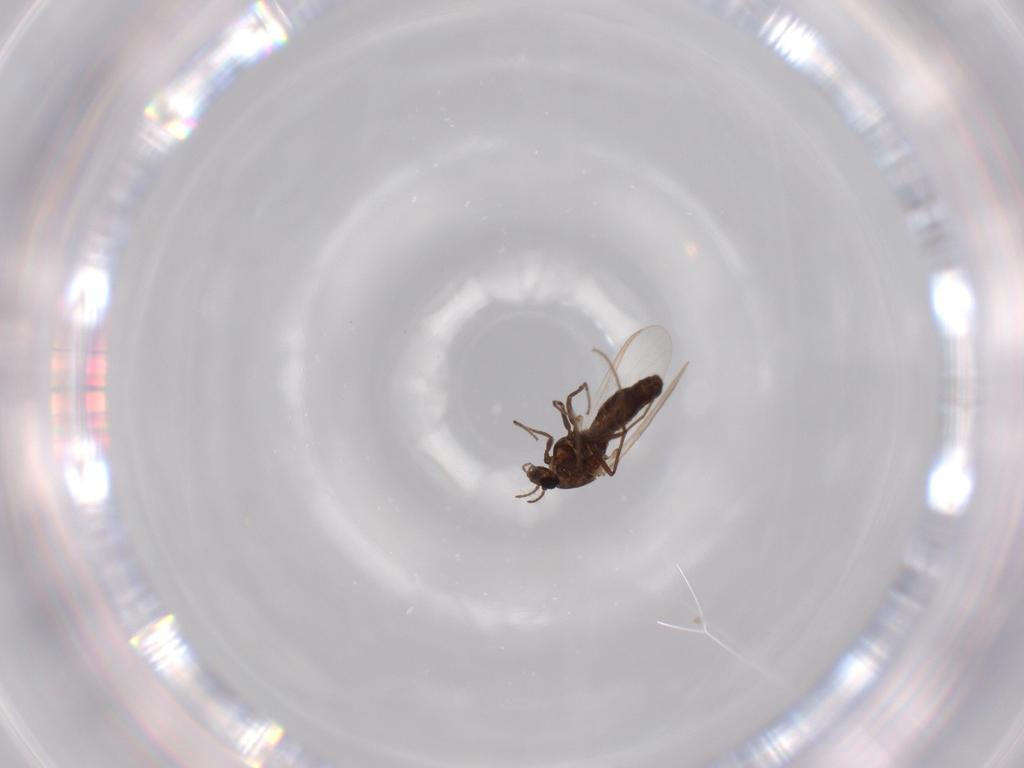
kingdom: Animalia
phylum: Arthropoda
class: Insecta
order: Diptera
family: Chironomidae
